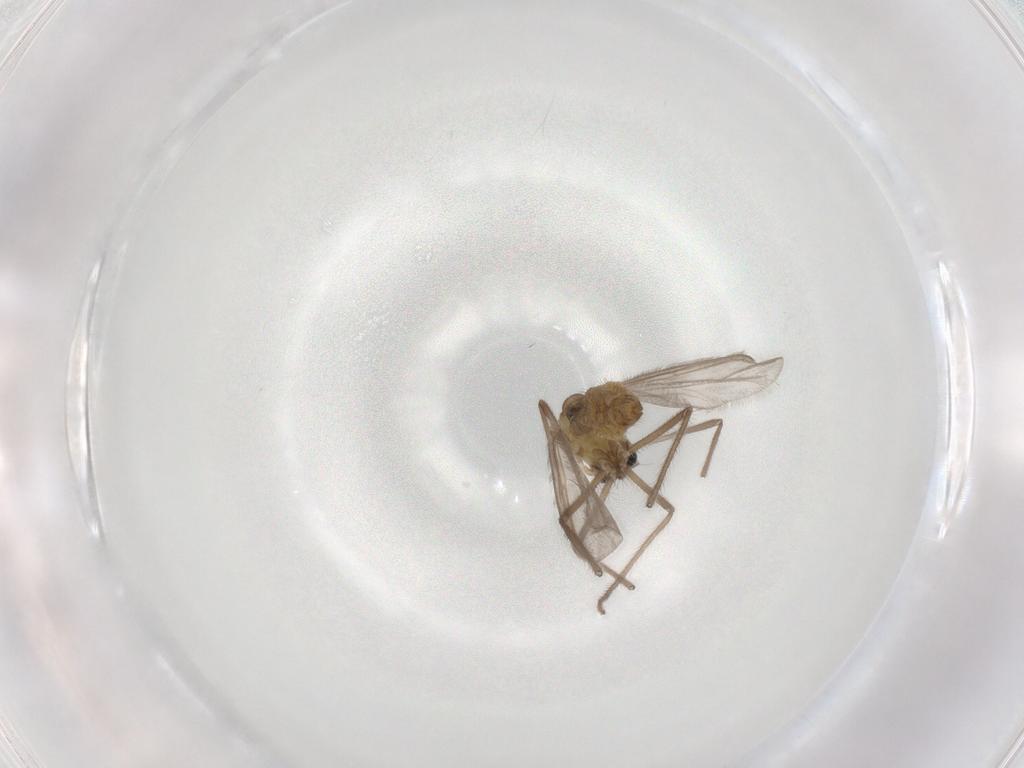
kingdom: Animalia
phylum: Arthropoda
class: Insecta
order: Diptera
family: Chironomidae
